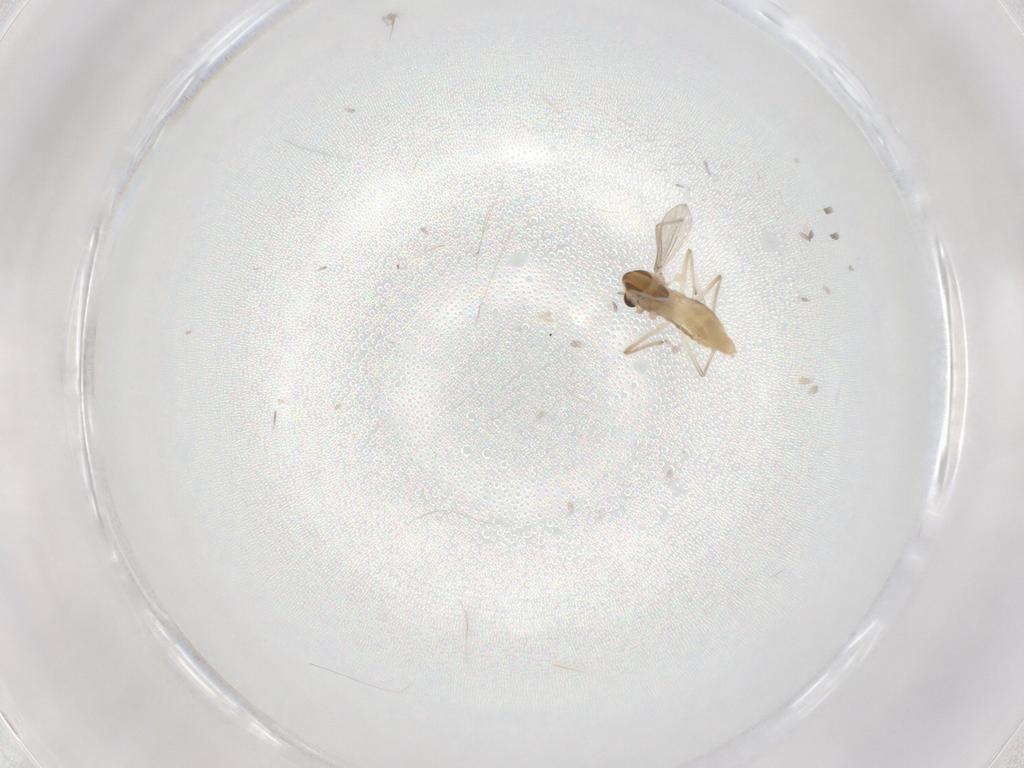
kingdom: Animalia
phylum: Arthropoda
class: Insecta
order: Diptera
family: Chironomidae
